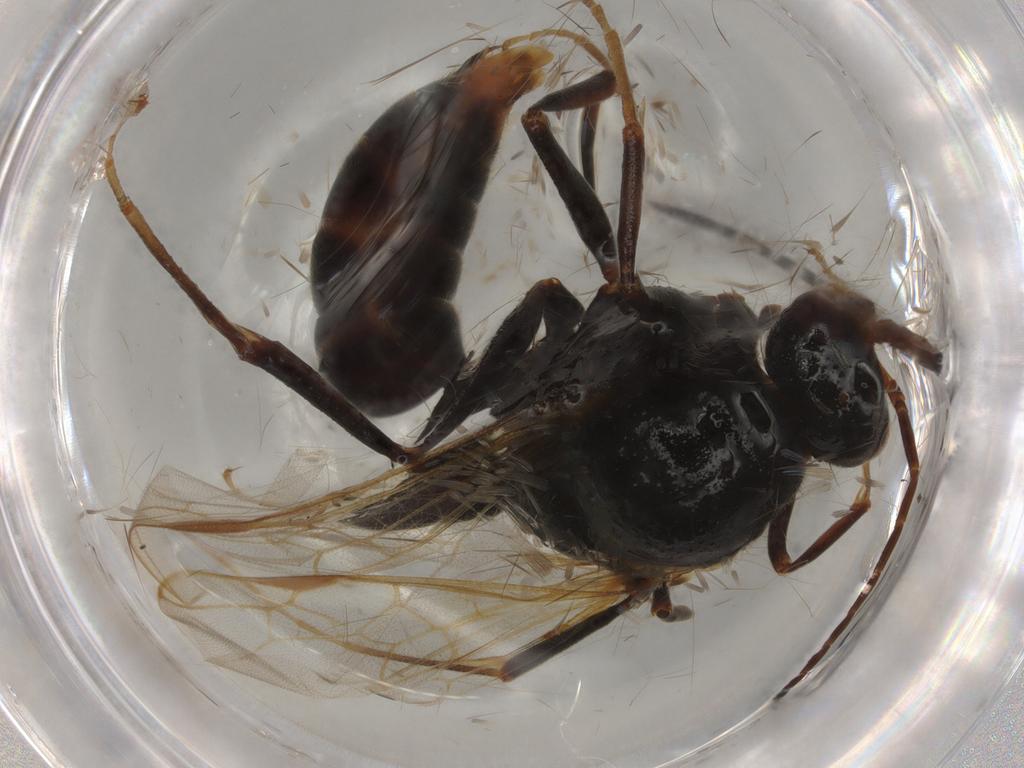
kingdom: Animalia
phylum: Arthropoda
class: Insecta
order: Hymenoptera
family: Formicidae
